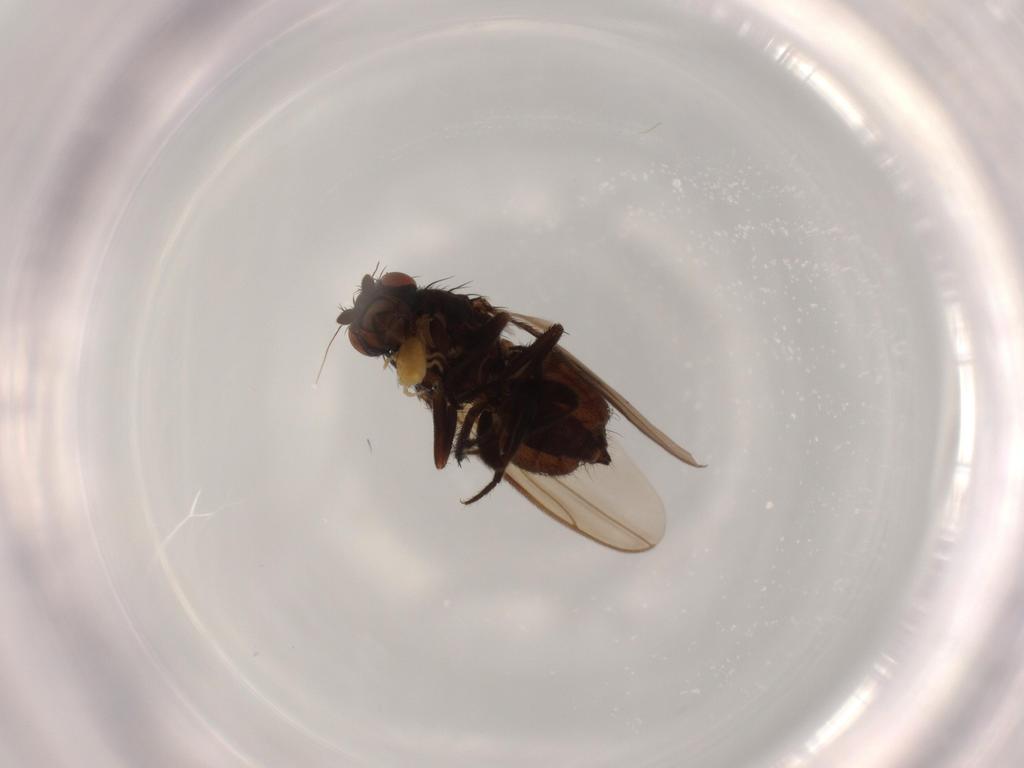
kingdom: Animalia
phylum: Arthropoda
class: Insecta
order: Diptera
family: Sphaeroceridae
